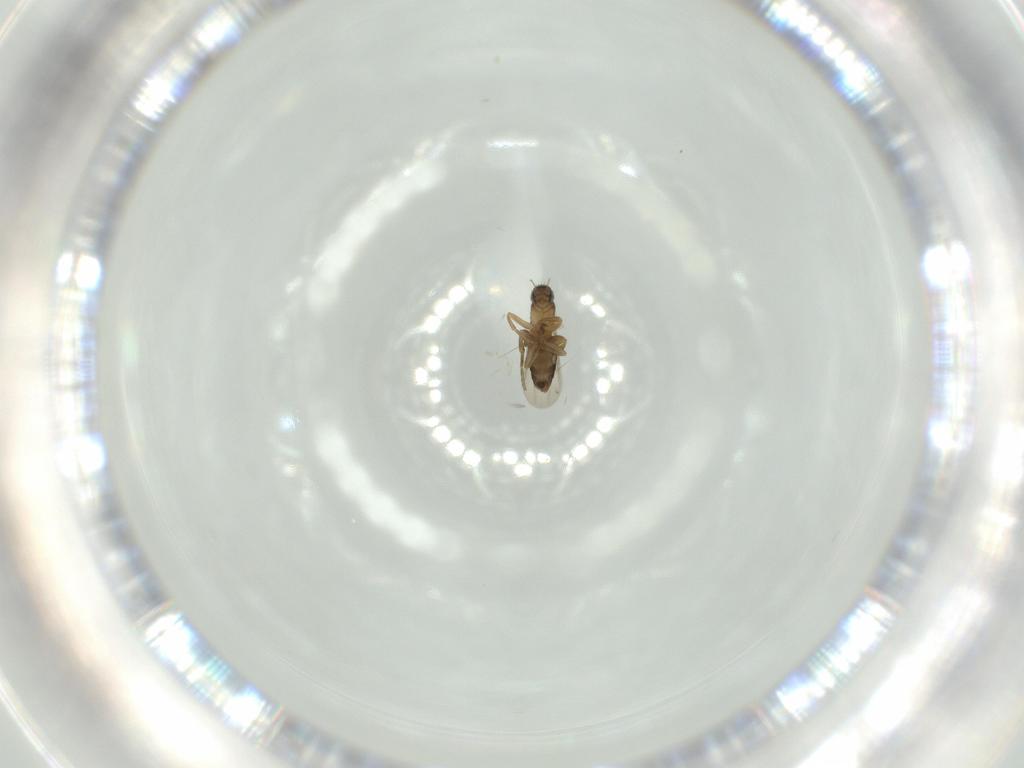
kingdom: Animalia
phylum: Arthropoda
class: Insecta
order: Diptera
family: Phoridae
